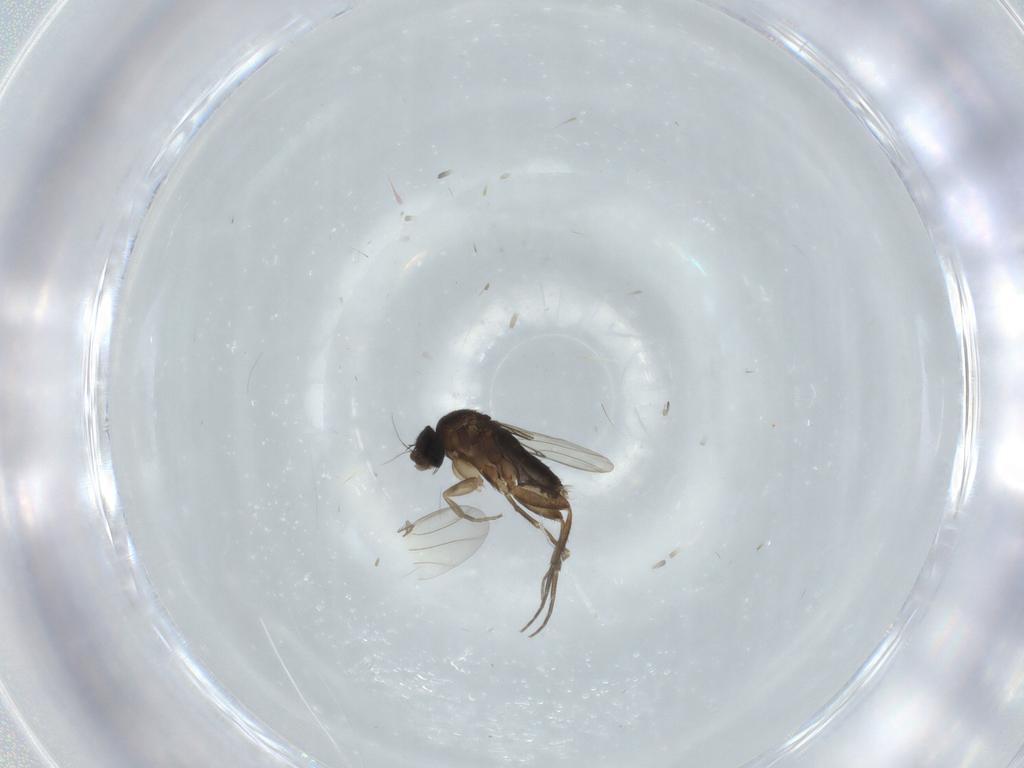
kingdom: Animalia
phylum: Arthropoda
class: Insecta
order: Diptera
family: Phoridae
